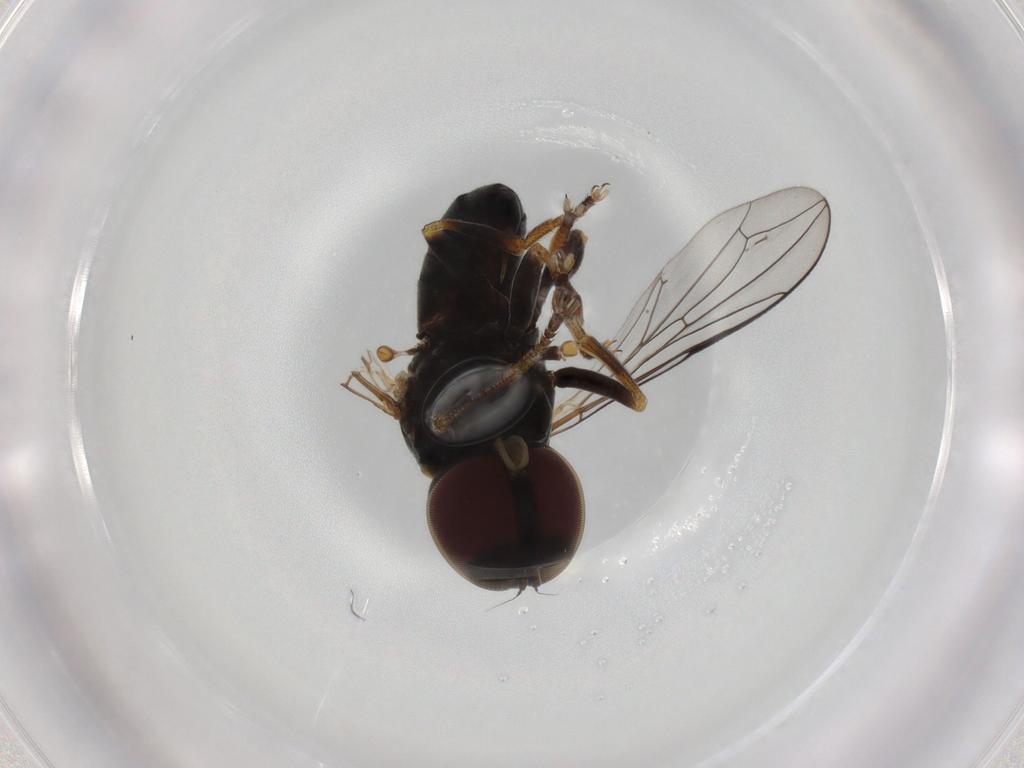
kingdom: Animalia
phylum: Arthropoda
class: Insecta
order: Diptera
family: Pipunculidae
